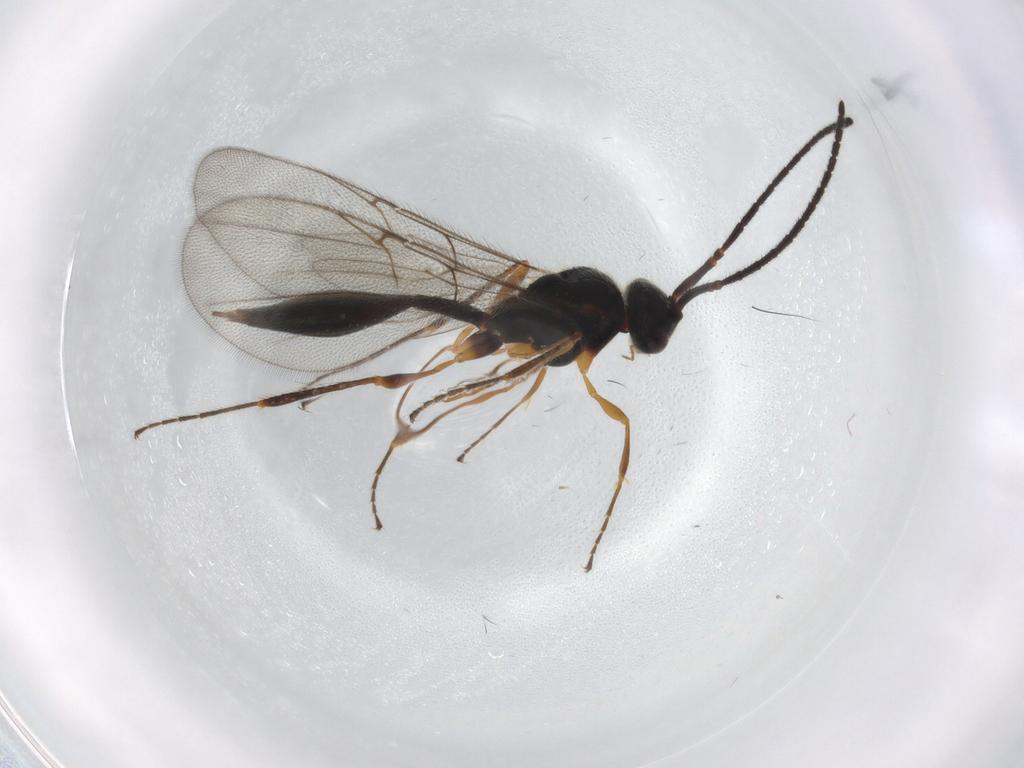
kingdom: Animalia
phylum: Arthropoda
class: Insecta
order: Hymenoptera
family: Diapriidae
